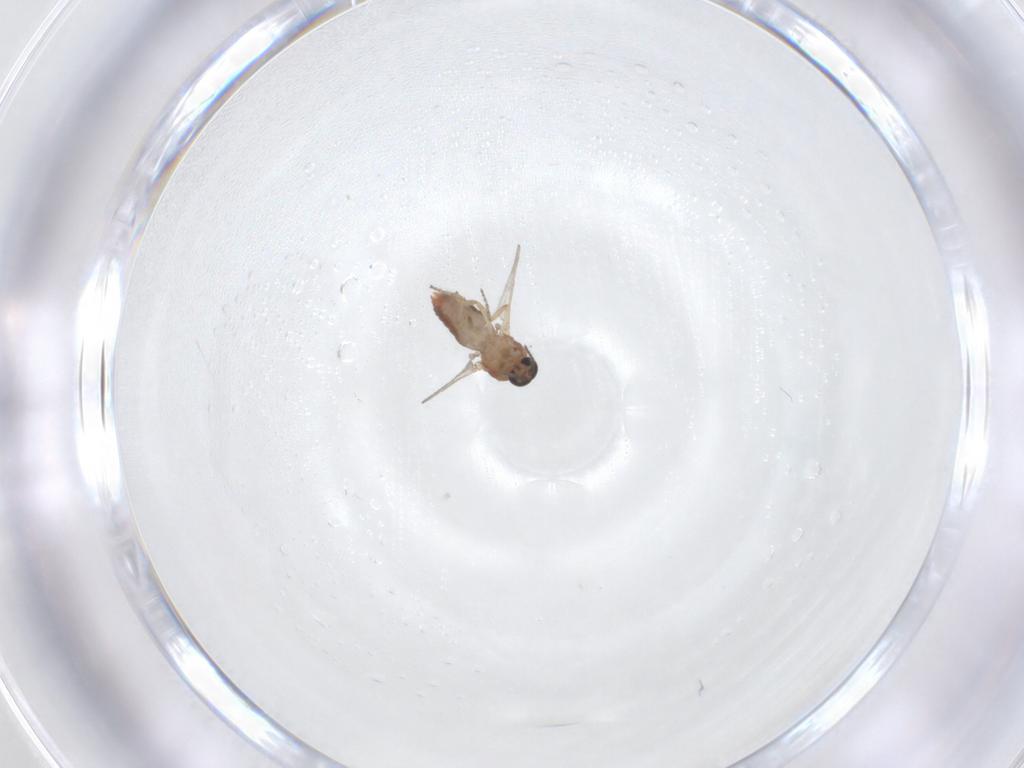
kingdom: Animalia
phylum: Arthropoda
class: Insecta
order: Diptera
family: Ceratopogonidae
